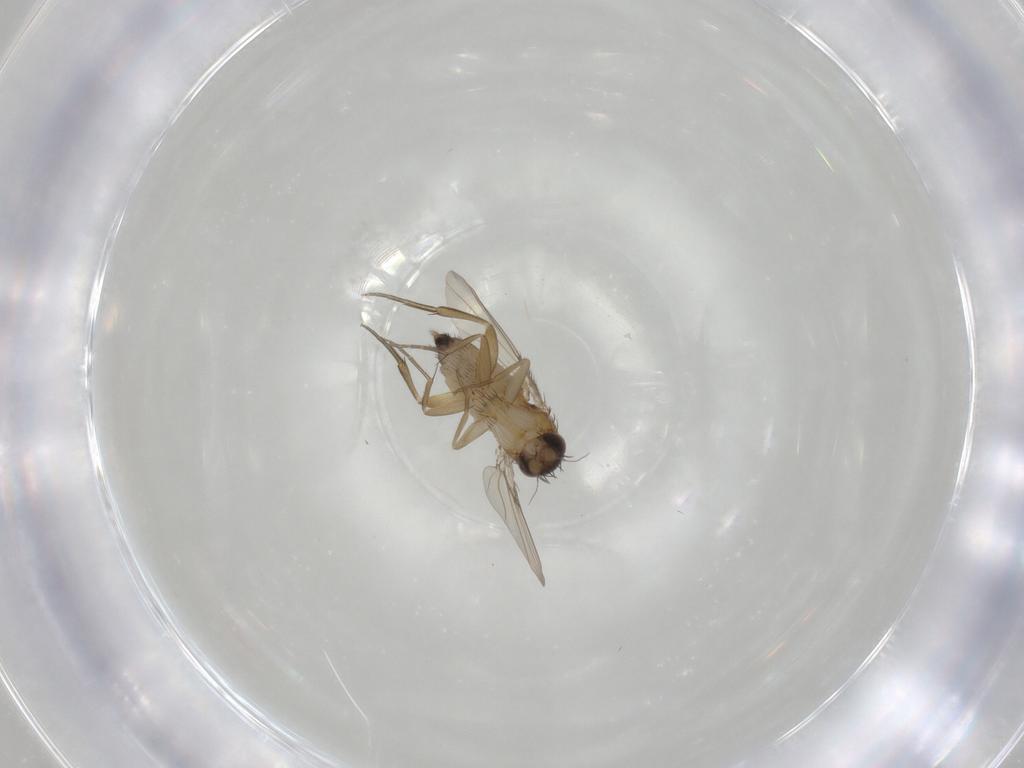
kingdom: Animalia
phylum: Arthropoda
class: Insecta
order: Diptera
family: Phoridae
